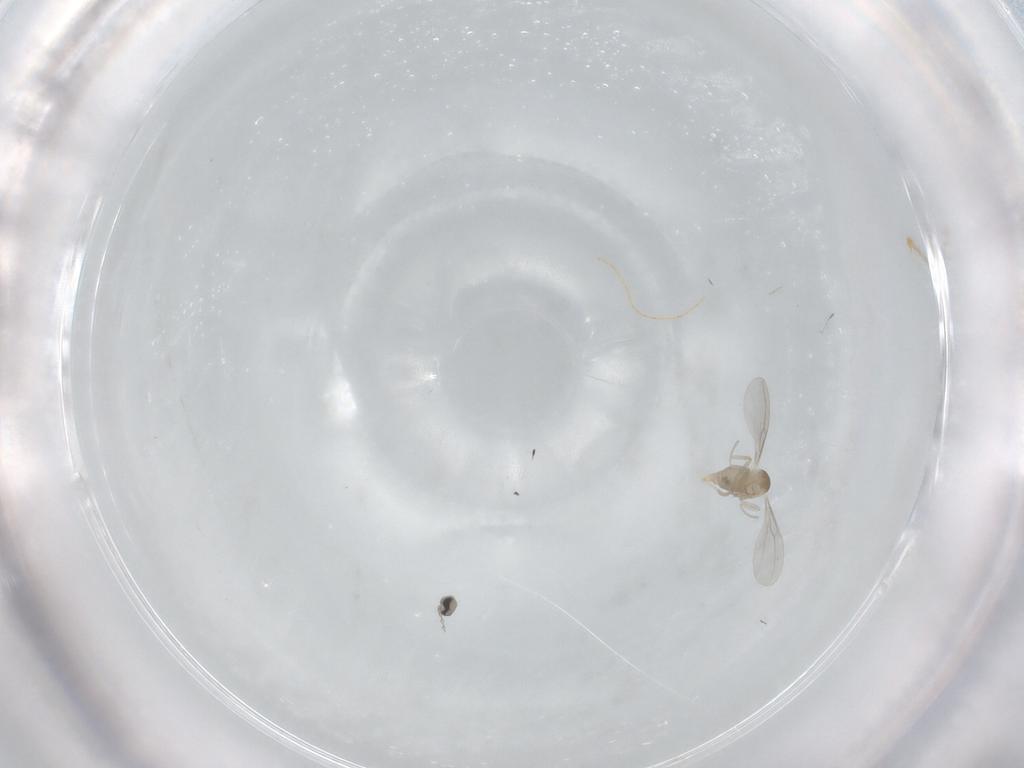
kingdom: Animalia
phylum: Arthropoda
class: Insecta
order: Diptera
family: Cecidomyiidae
